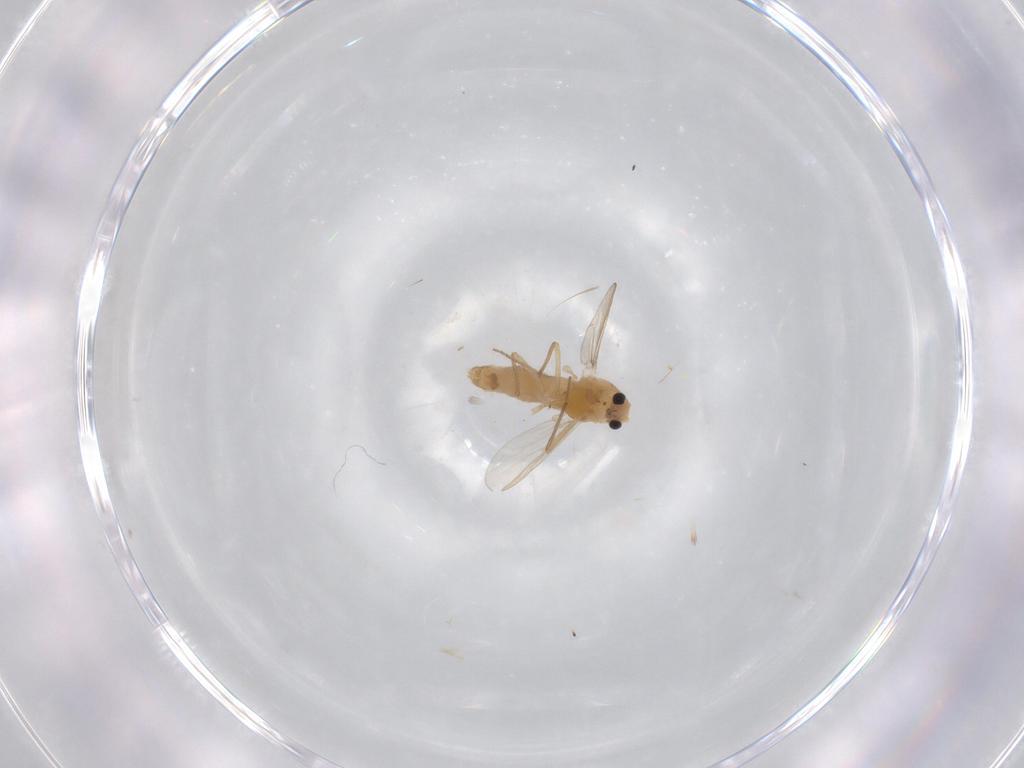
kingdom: Animalia
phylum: Arthropoda
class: Insecta
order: Diptera
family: Chironomidae
